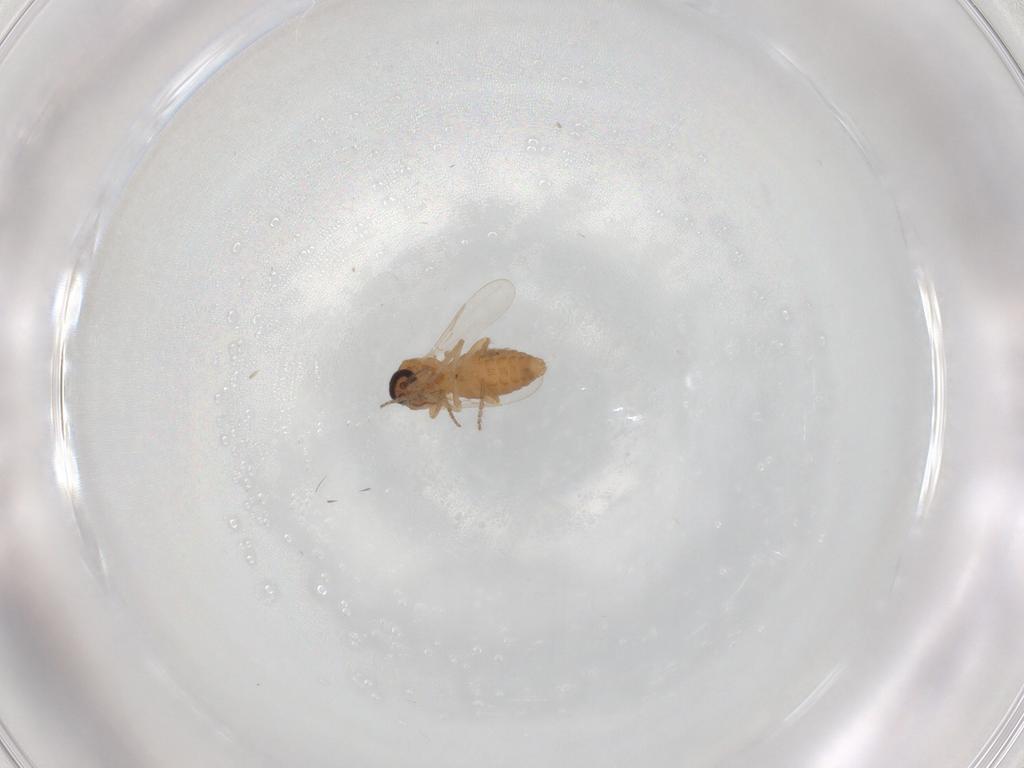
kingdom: Animalia
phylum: Arthropoda
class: Insecta
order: Diptera
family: Ceratopogonidae
